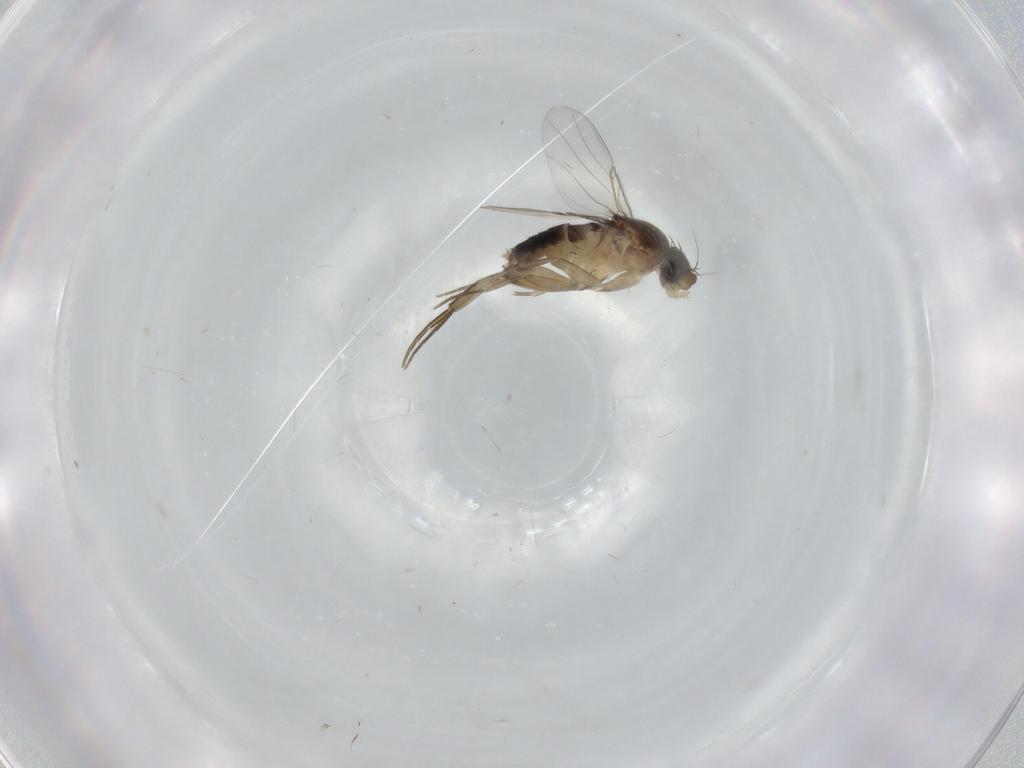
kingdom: Animalia
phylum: Arthropoda
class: Insecta
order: Diptera
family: Phoridae
